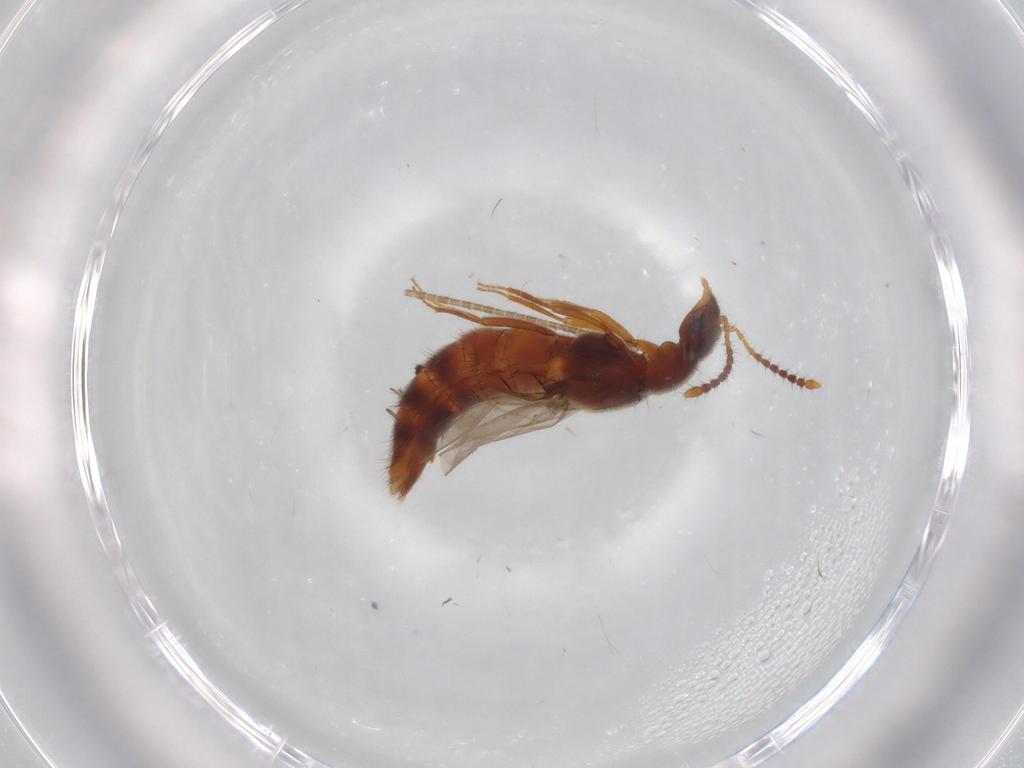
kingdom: Animalia
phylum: Arthropoda
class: Insecta
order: Coleoptera
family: Staphylinidae
